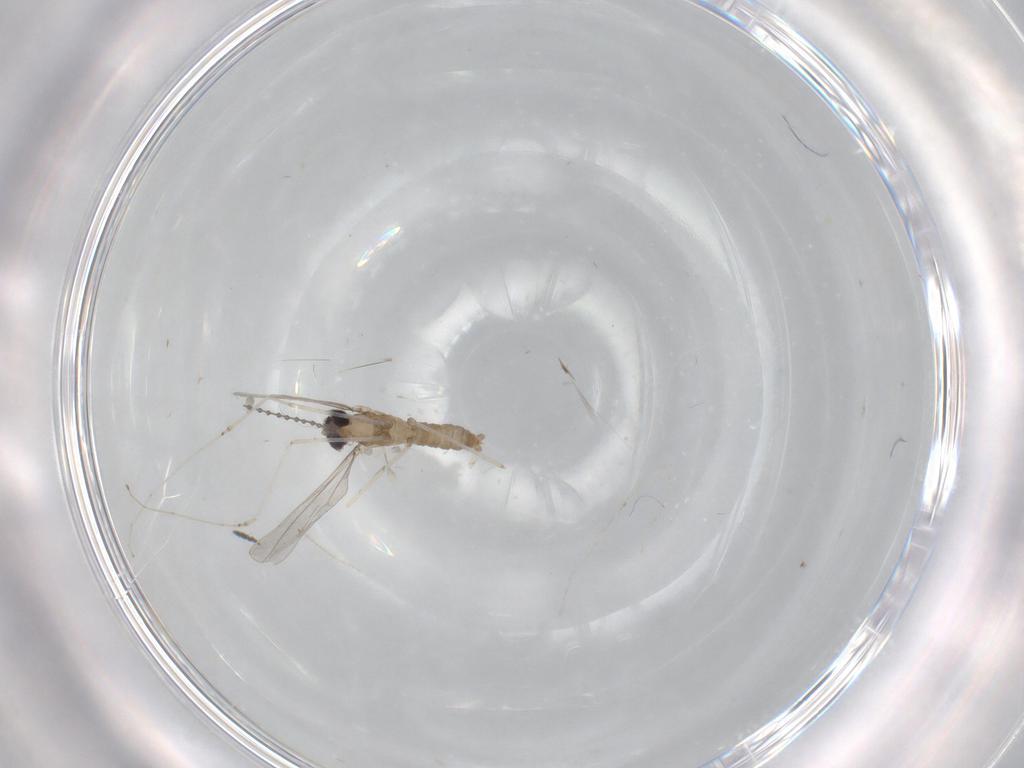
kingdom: Animalia
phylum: Arthropoda
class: Insecta
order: Diptera
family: Cecidomyiidae
